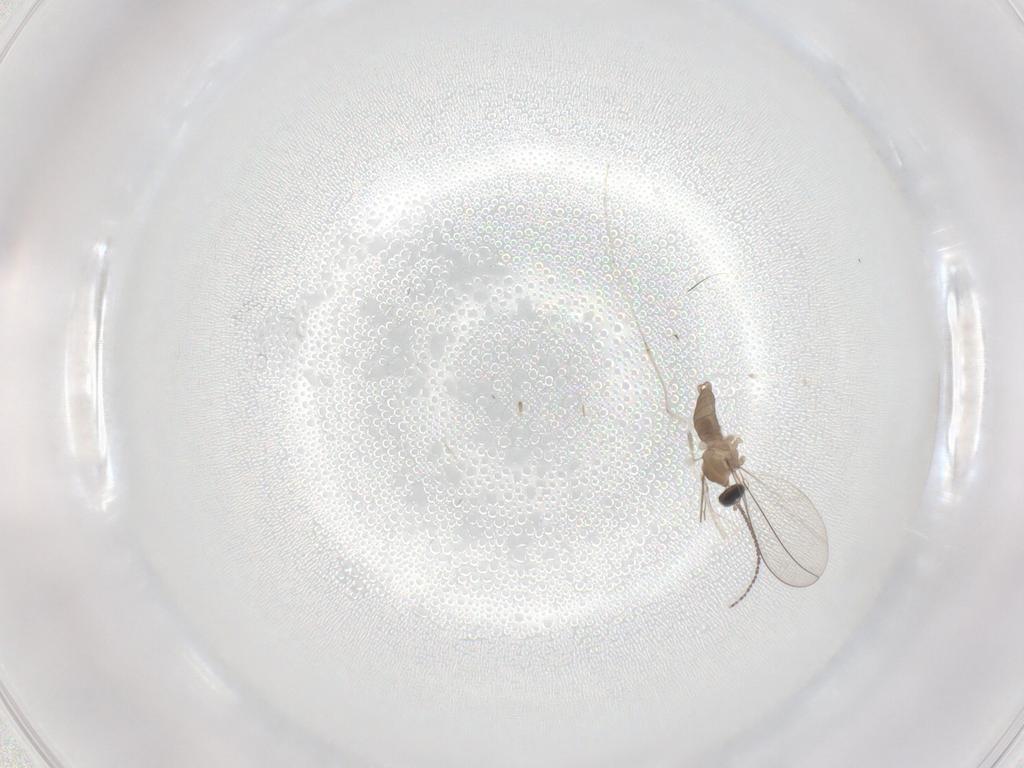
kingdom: Animalia
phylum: Arthropoda
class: Insecta
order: Diptera
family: Cecidomyiidae
